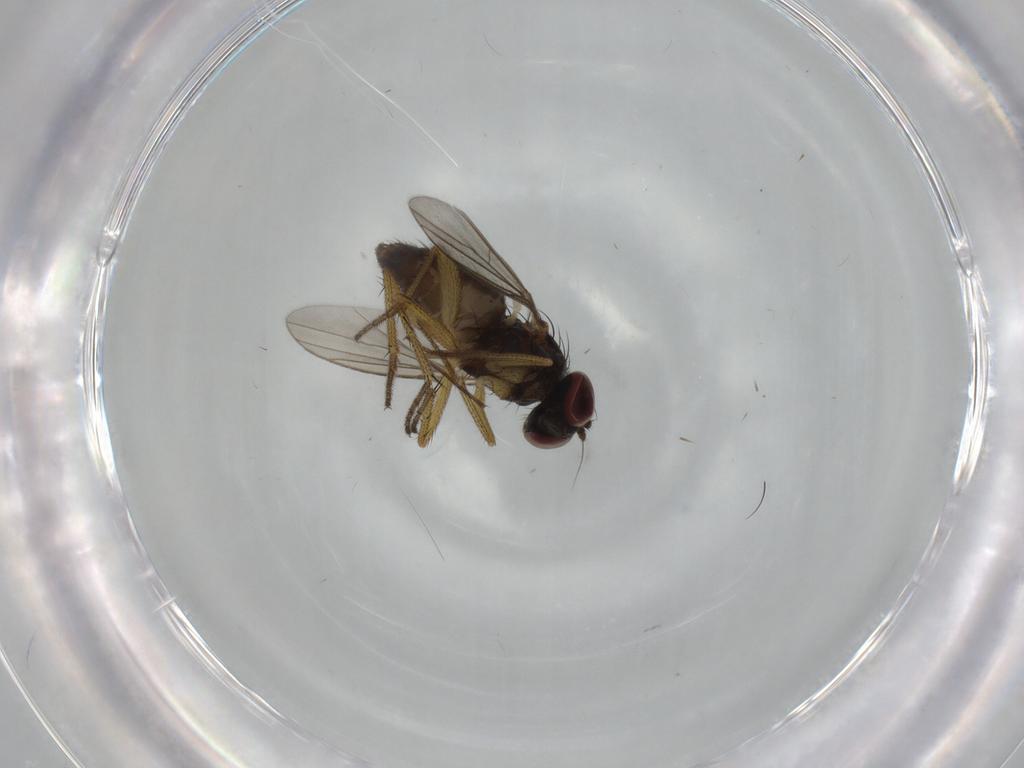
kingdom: Animalia
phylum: Arthropoda
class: Insecta
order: Diptera
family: Dolichopodidae
